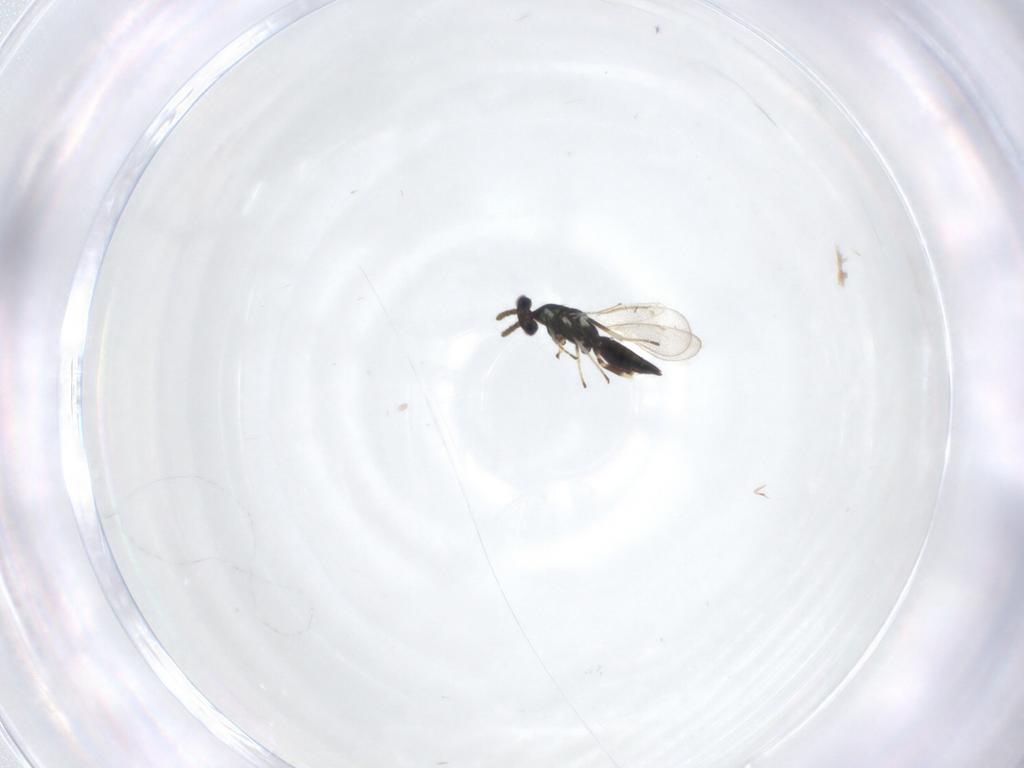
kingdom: Animalia
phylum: Arthropoda
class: Insecta
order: Hymenoptera
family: Eulophidae
